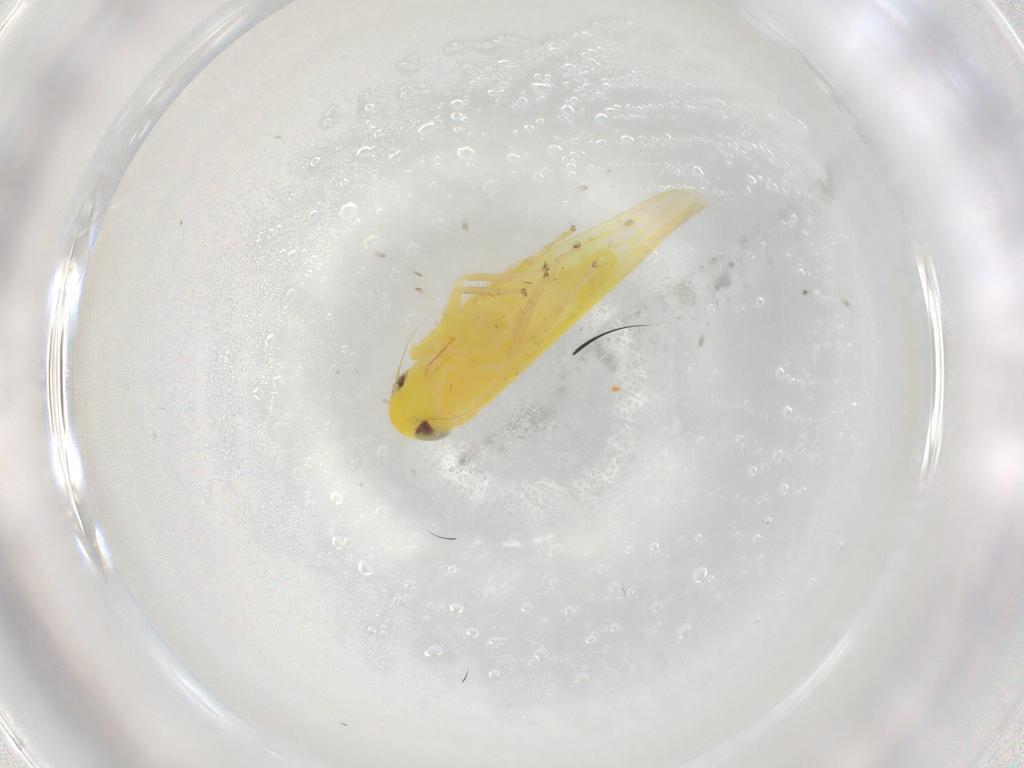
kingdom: Animalia
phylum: Arthropoda
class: Insecta
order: Hemiptera
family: Cicadellidae
